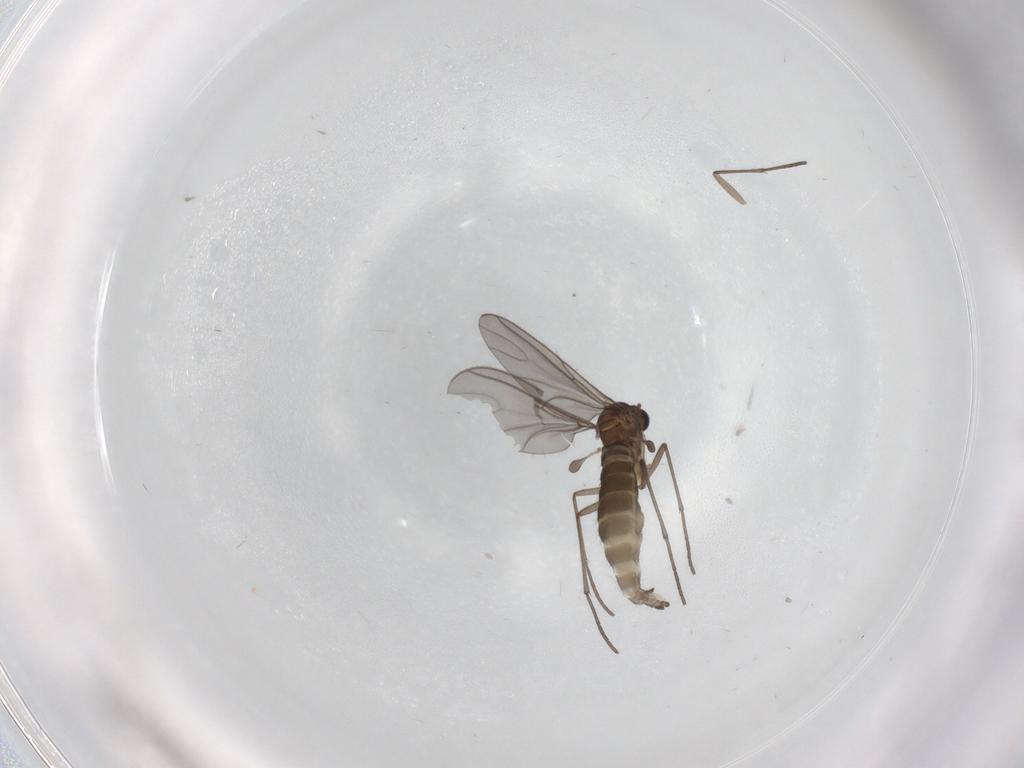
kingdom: Animalia
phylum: Arthropoda
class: Insecta
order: Diptera
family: Sciaridae
